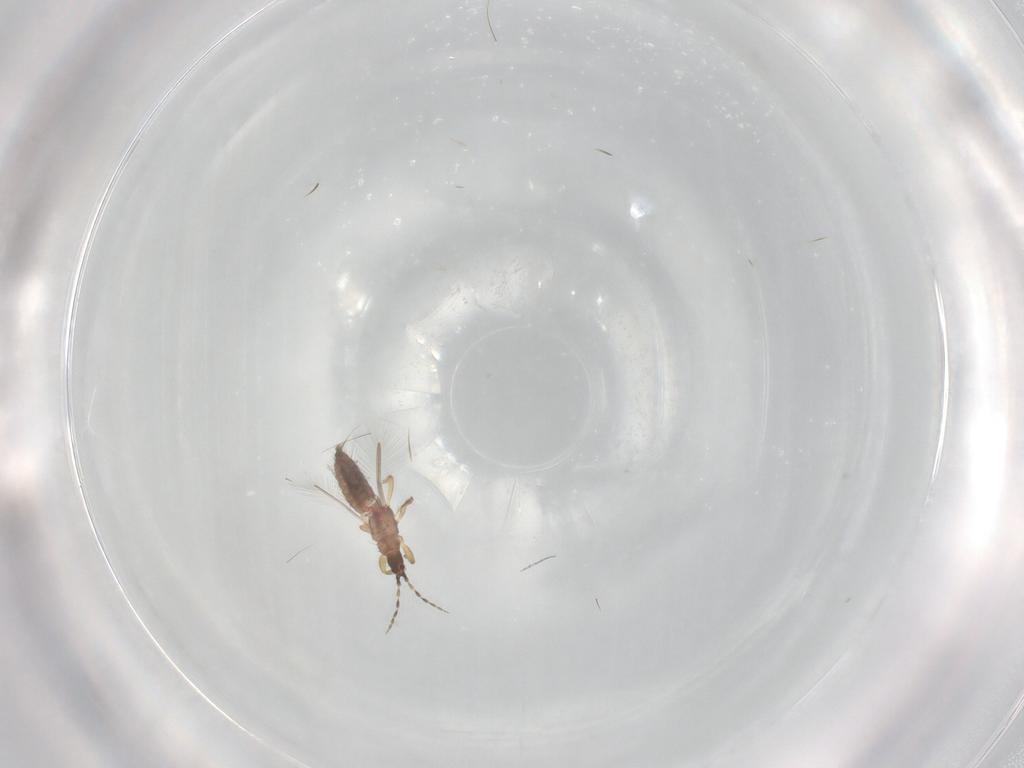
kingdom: Animalia
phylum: Arthropoda
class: Insecta
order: Thysanoptera
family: Phlaeothripidae
